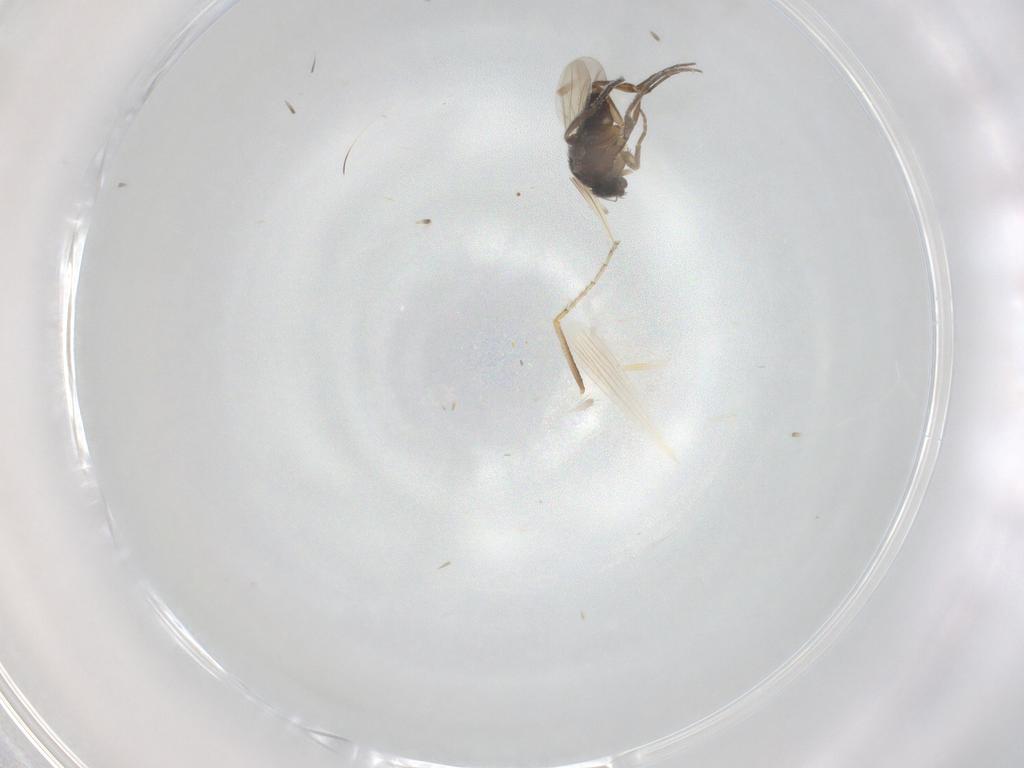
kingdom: Animalia
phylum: Arthropoda
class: Insecta
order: Diptera
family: Ceratopogonidae
